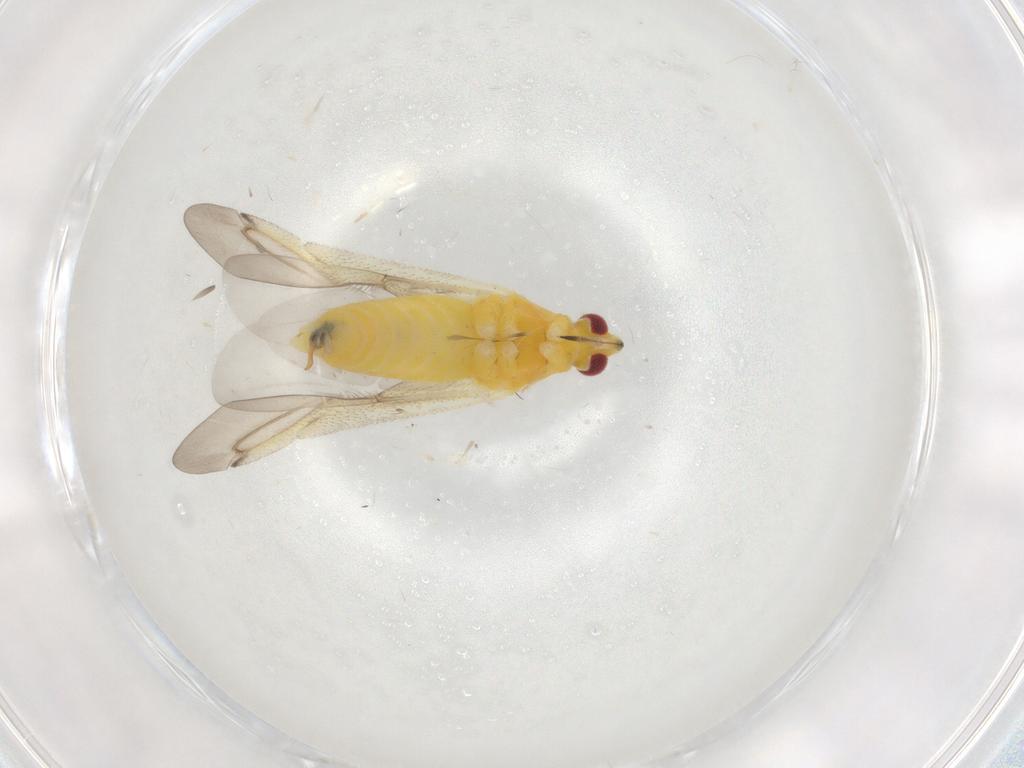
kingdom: Animalia
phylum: Arthropoda
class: Insecta
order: Hemiptera
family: Miridae
